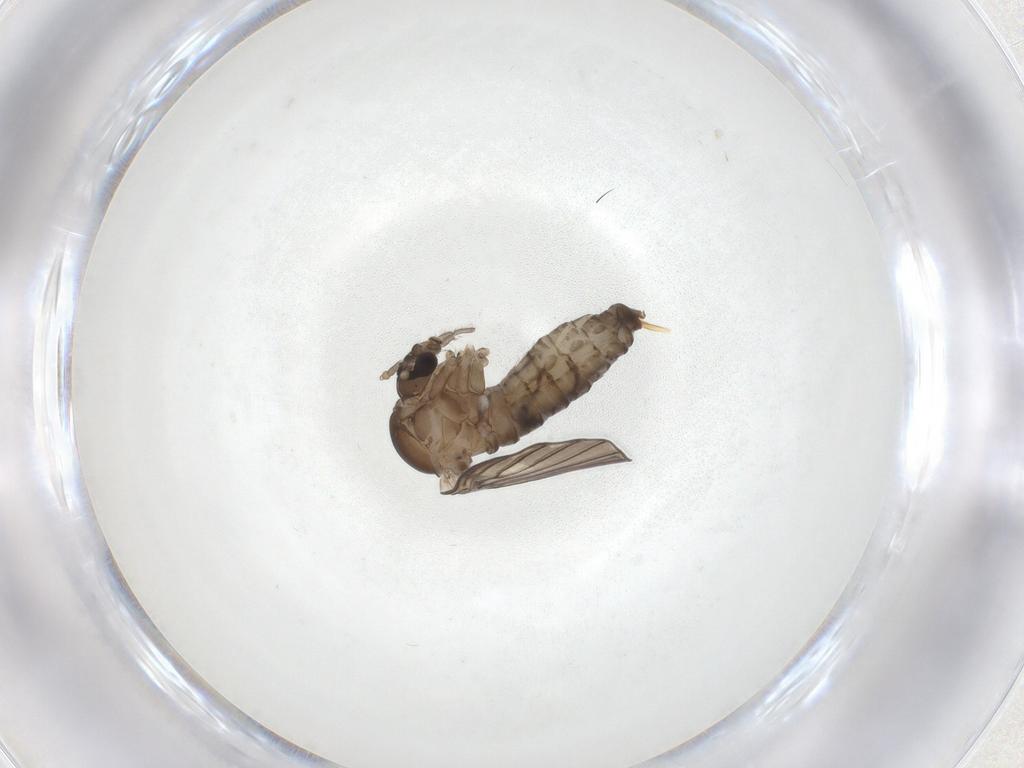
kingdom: Animalia
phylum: Arthropoda
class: Insecta
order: Diptera
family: Psychodidae
